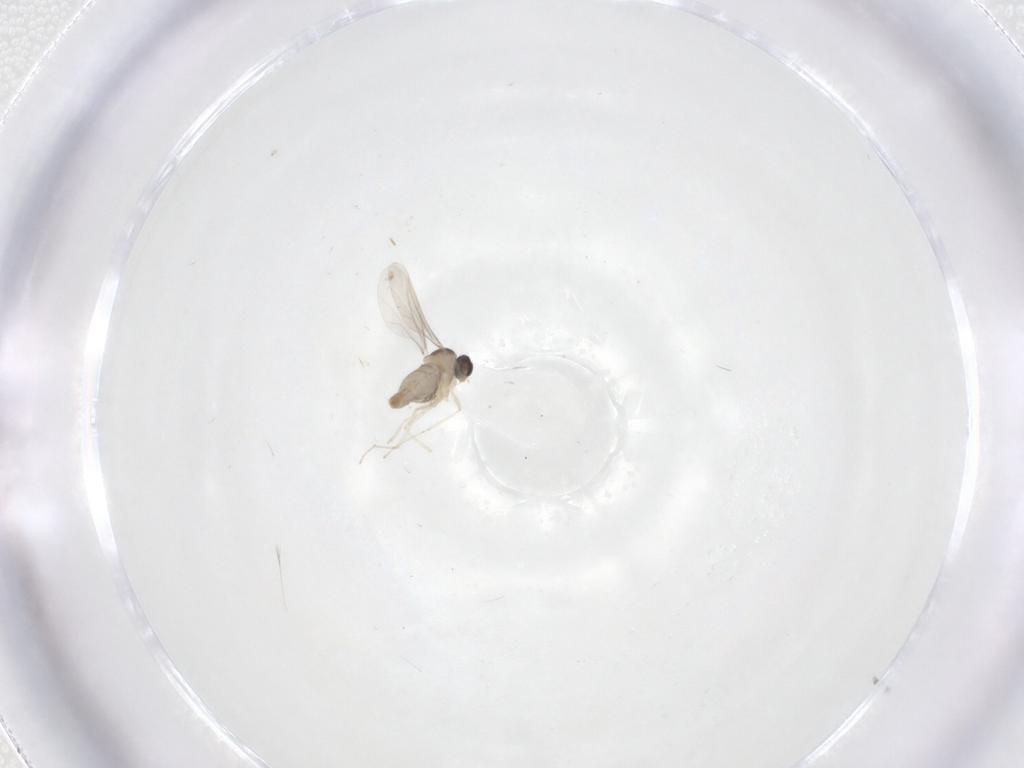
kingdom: Animalia
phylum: Arthropoda
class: Insecta
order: Diptera
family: Cecidomyiidae
